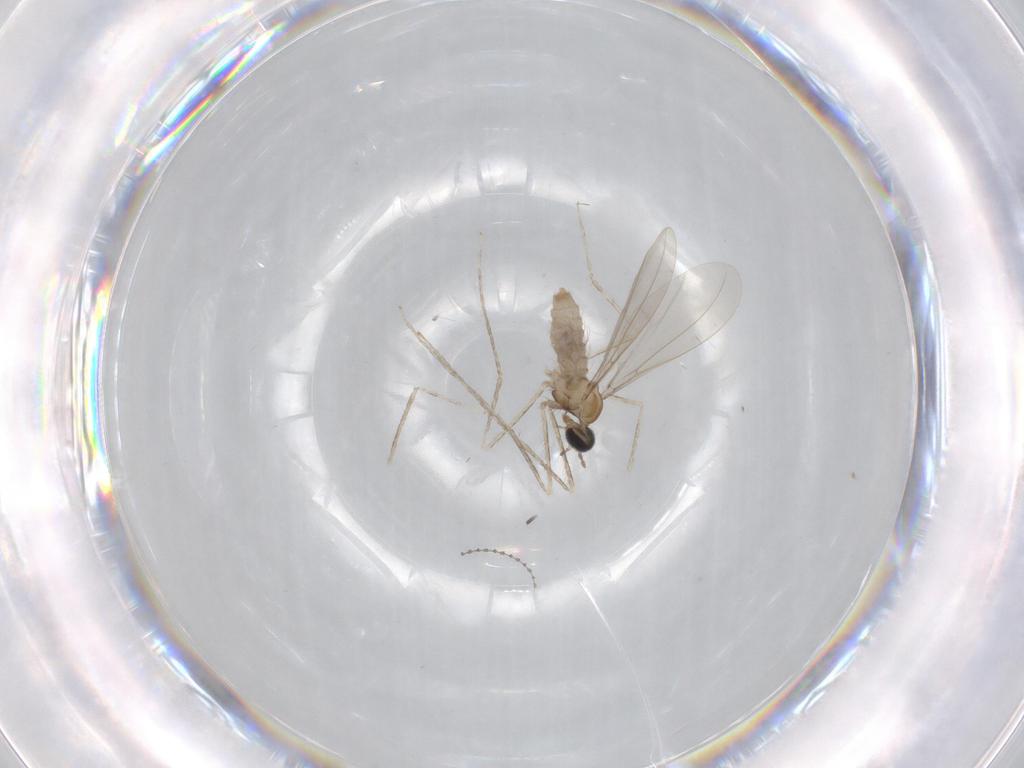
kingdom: Animalia
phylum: Arthropoda
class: Insecta
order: Diptera
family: Cecidomyiidae
